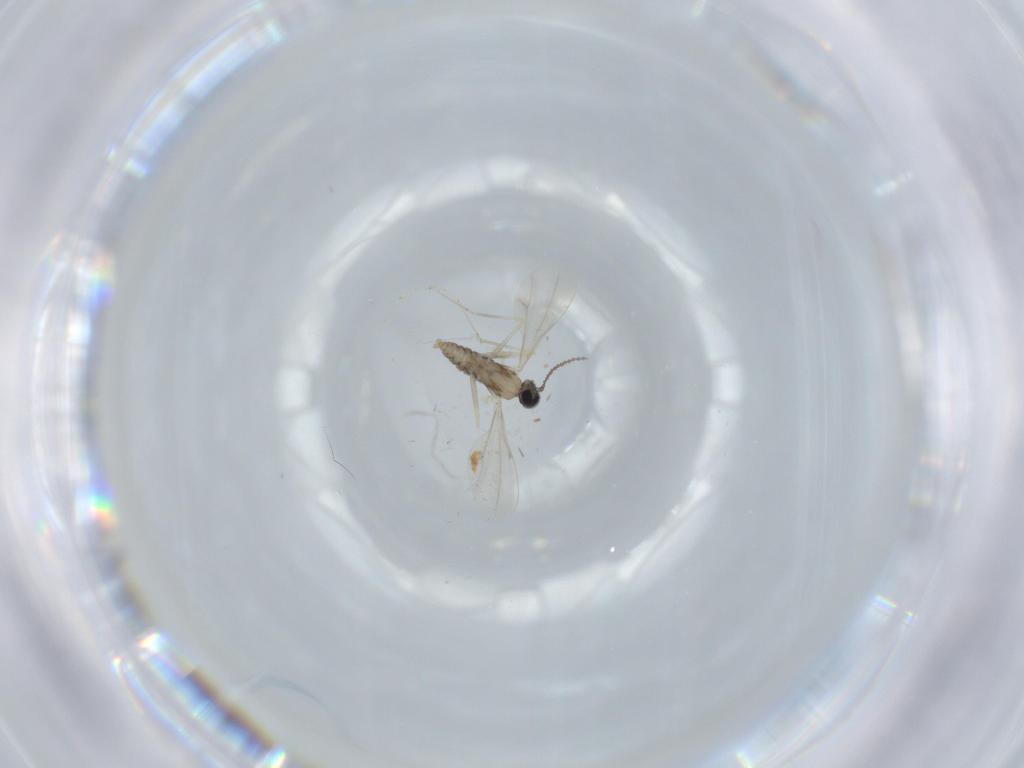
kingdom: Animalia
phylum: Arthropoda
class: Insecta
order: Diptera
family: Cecidomyiidae
